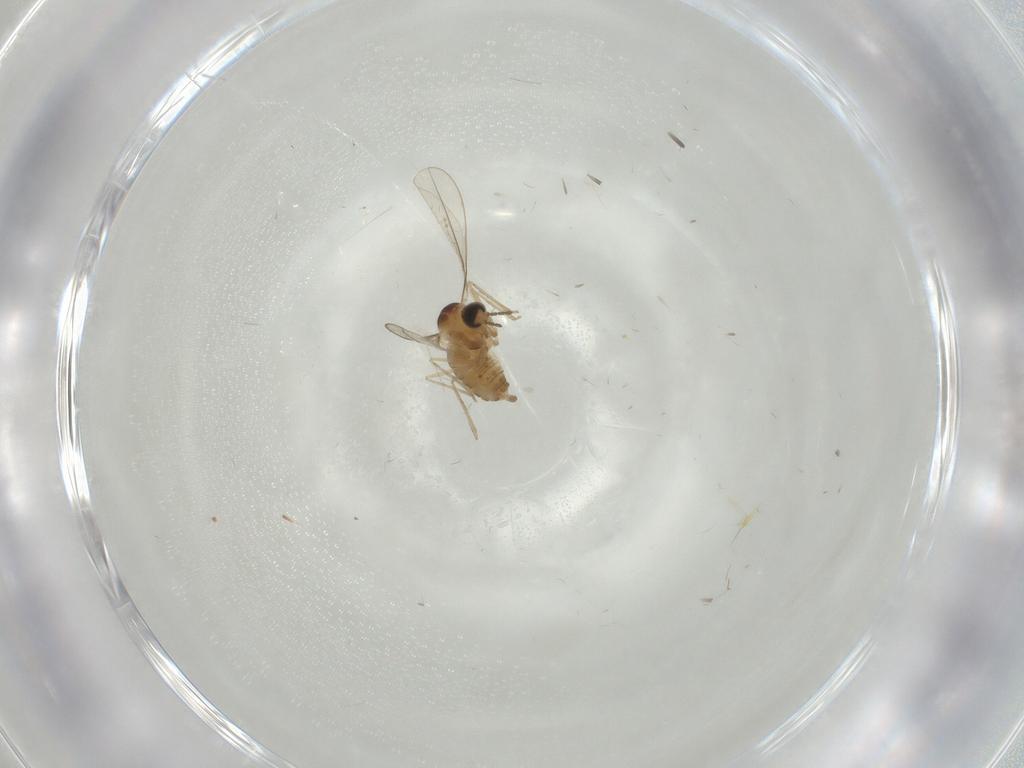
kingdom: Animalia
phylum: Arthropoda
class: Insecta
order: Diptera
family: Cecidomyiidae
